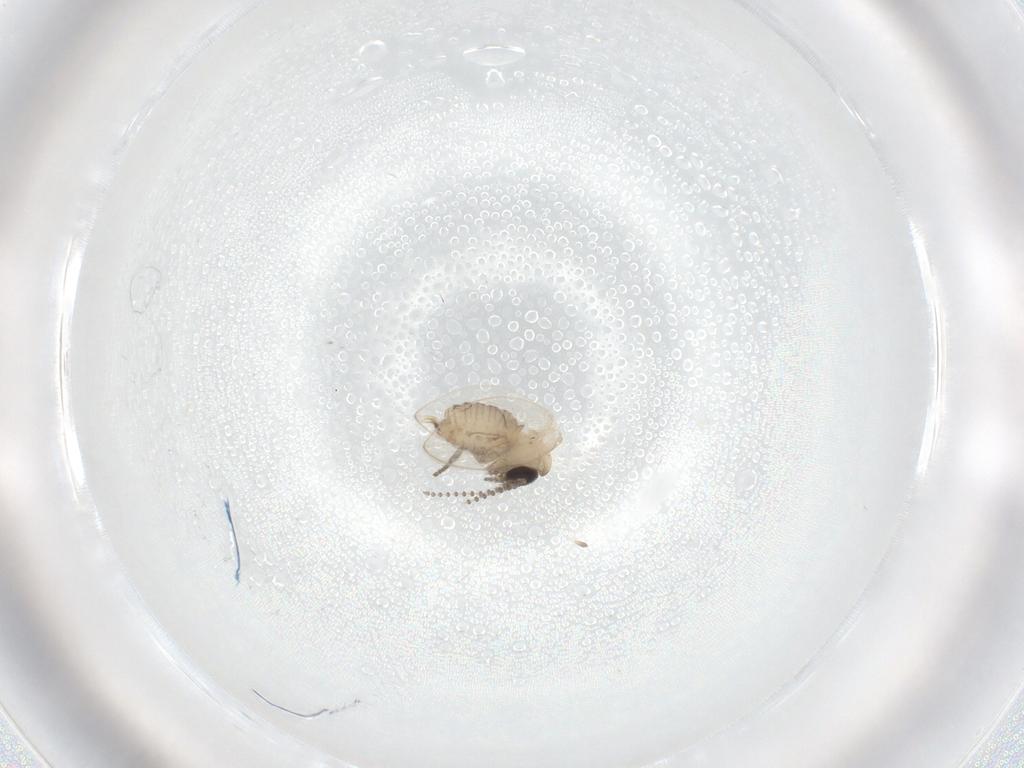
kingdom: Animalia
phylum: Arthropoda
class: Insecta
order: Diptera
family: Psychodidae
